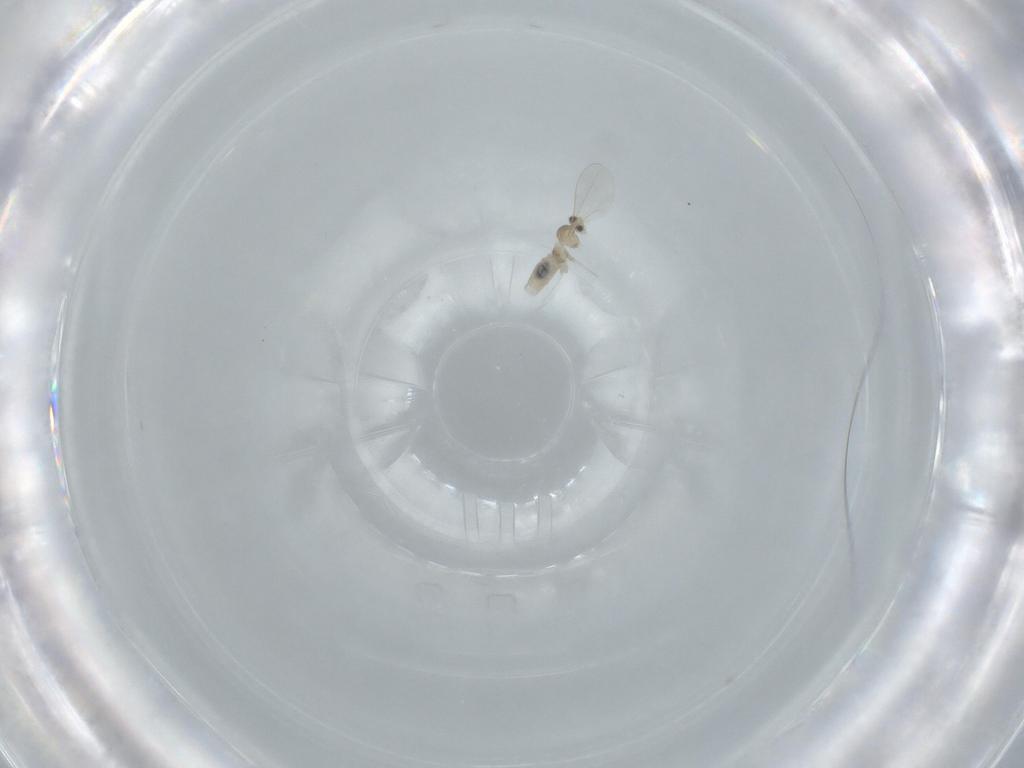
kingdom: Animalia
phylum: Arthropoda
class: Insecta
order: Diptera
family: Cecidomyiidae
